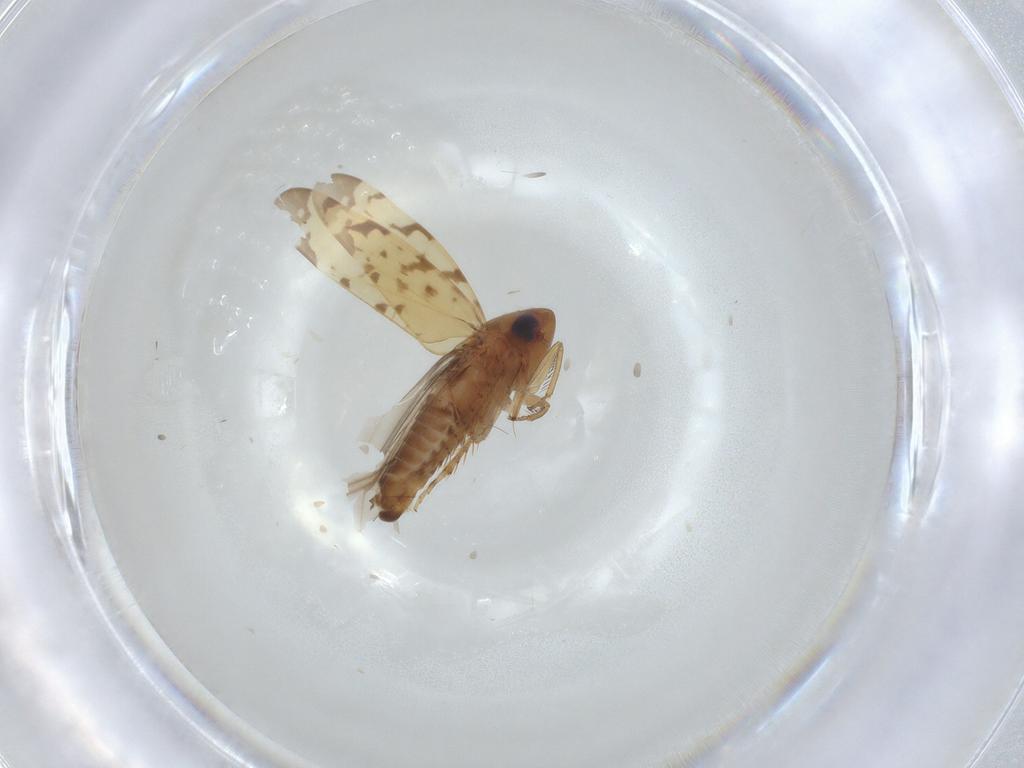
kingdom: Animalia
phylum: Arthropoda
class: Insecta
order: Hemiptera
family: Cicadellidae
